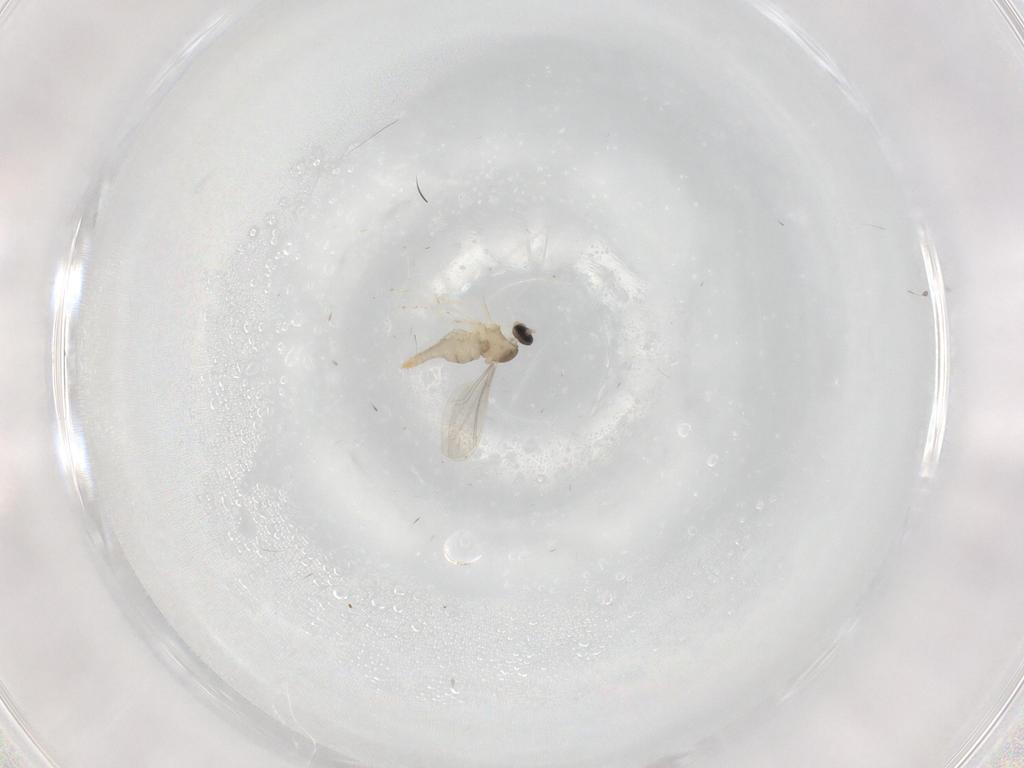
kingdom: Animalia
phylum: Arthropoda
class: Insecta
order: Diptera
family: Cecidomyiidae
